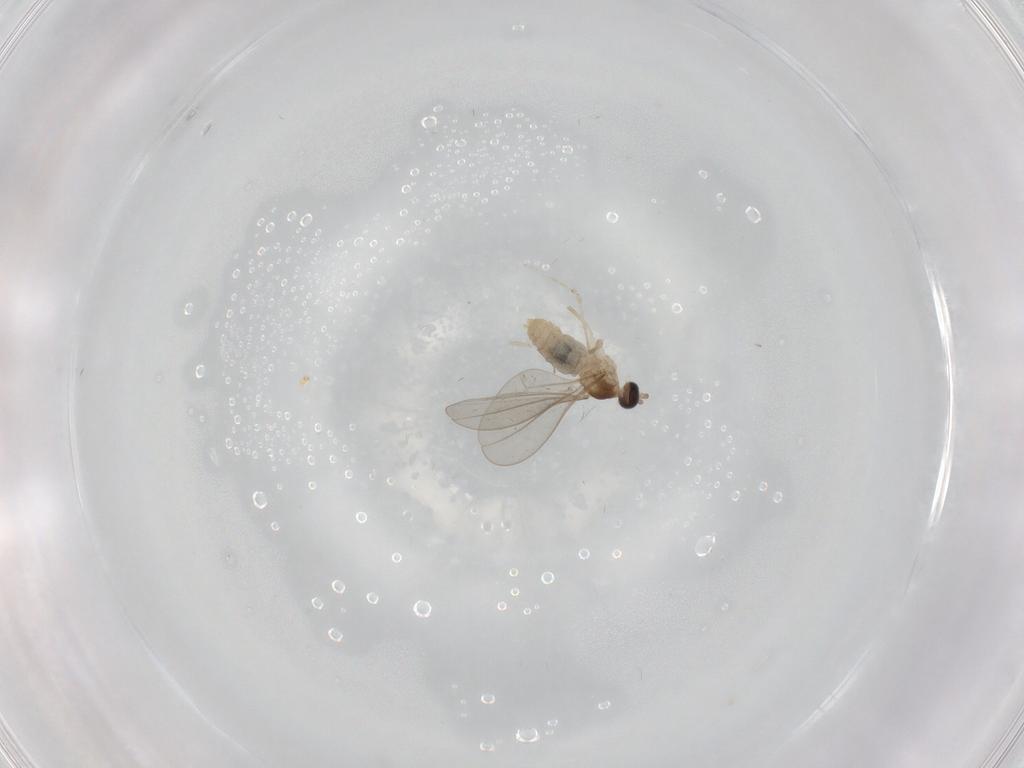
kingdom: Animalia
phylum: Arthropoda
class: Insecta
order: Diptera
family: Cecidomyiidae
